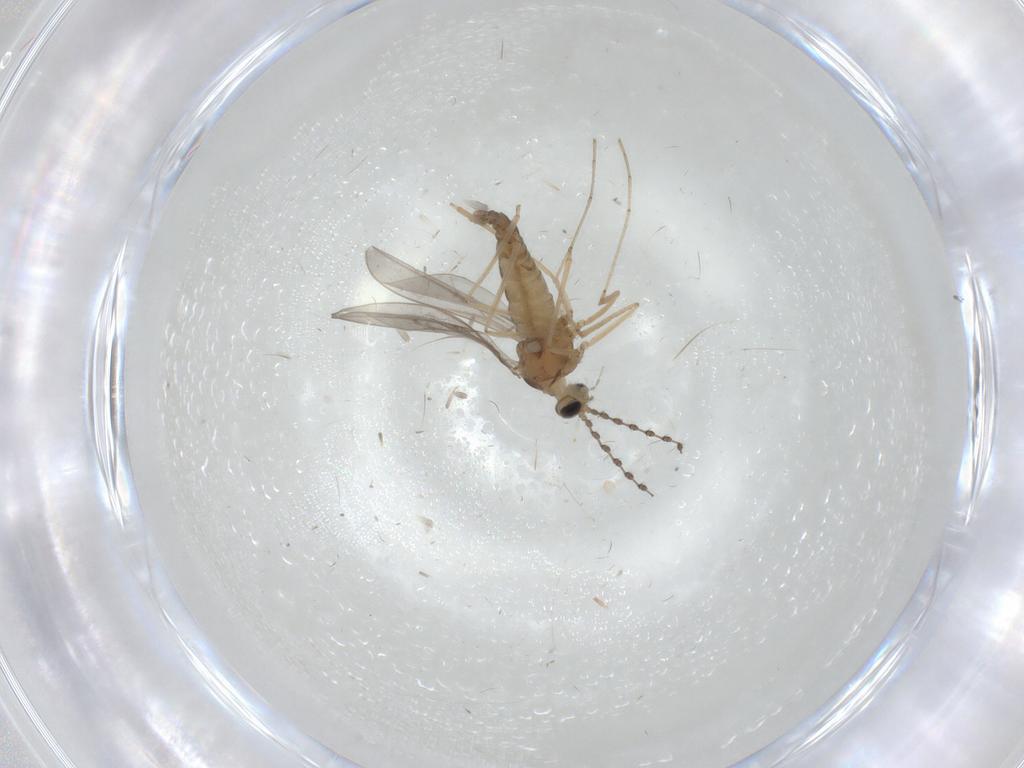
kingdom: Animalia
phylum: Arthropoda
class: Insecta
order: Diptera
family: Cecidomyiidae
